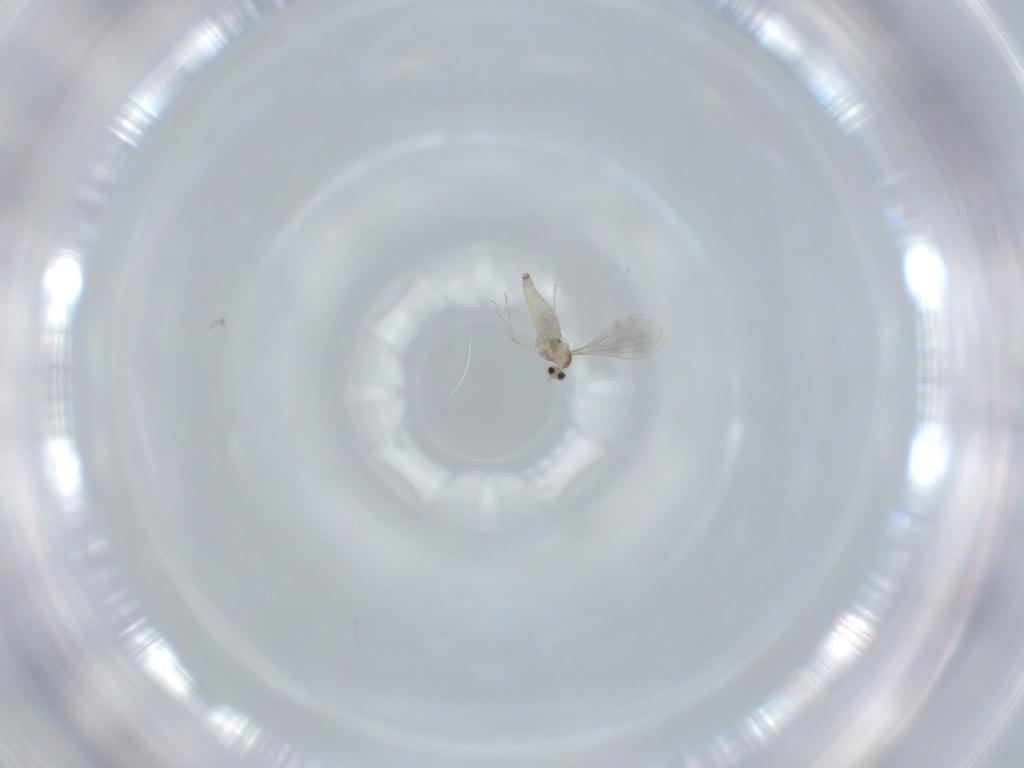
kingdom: Animalia
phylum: Arthropoda
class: Insecta
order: Diptera
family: Cecidomyiidae
